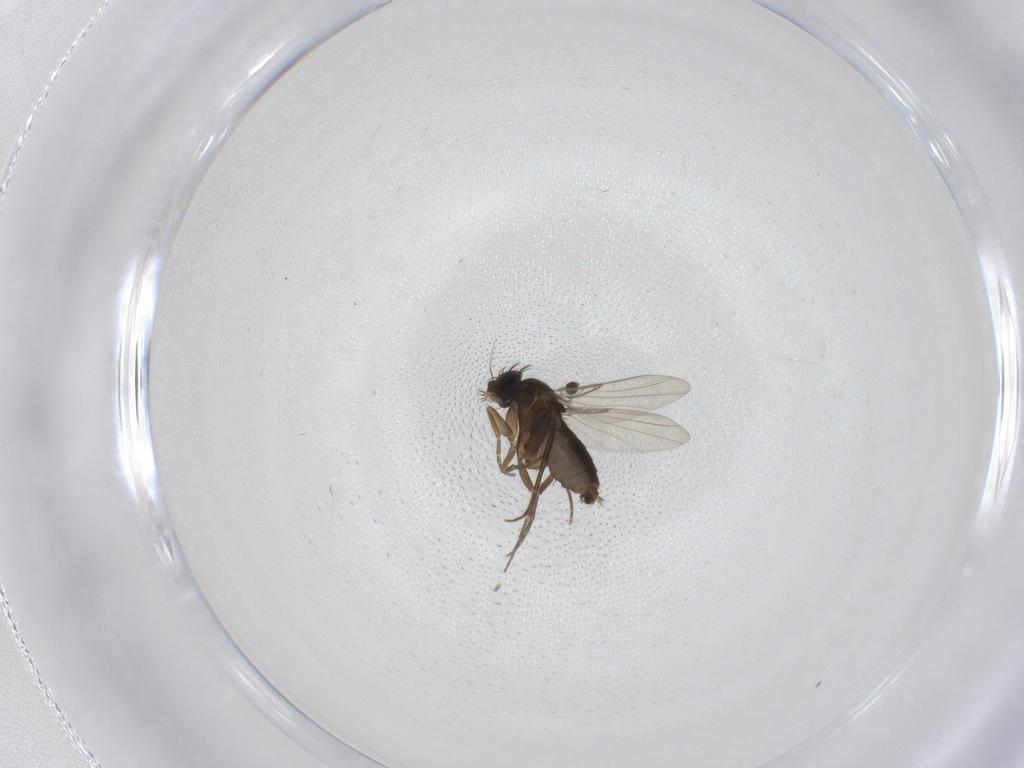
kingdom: Animalia
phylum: Arthropoda
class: Insecta
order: Diptera
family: Phoridae
